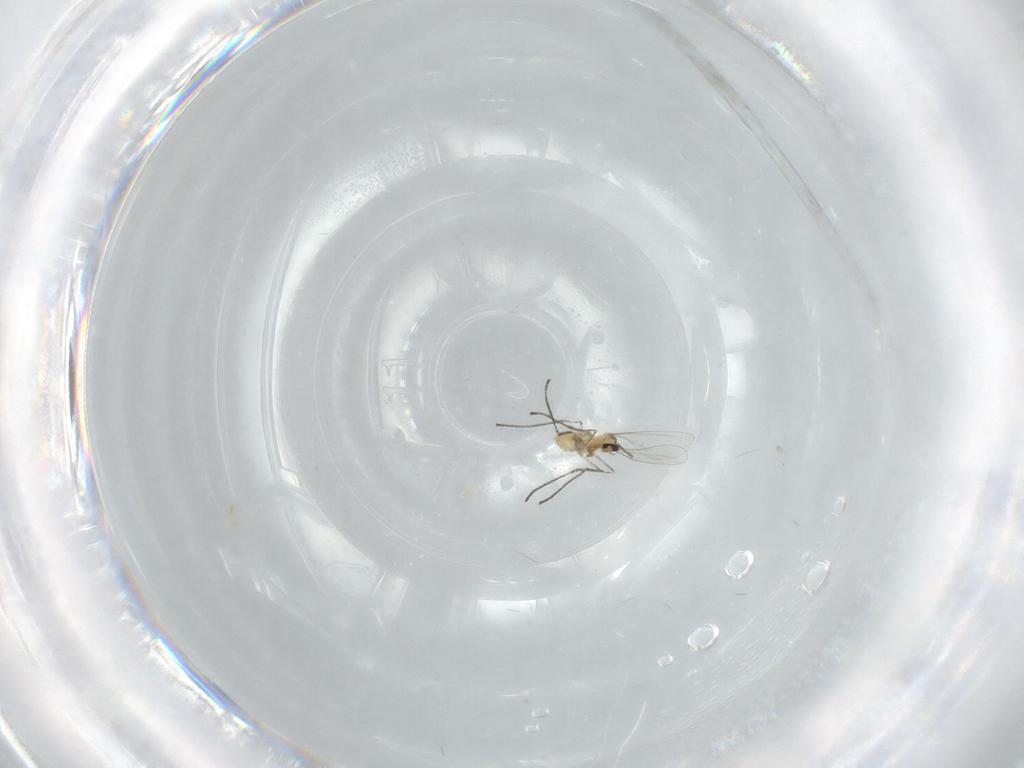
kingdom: Animalia
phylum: Arthropoda
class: Insecta
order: Diptera
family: Cecidomyiidae
